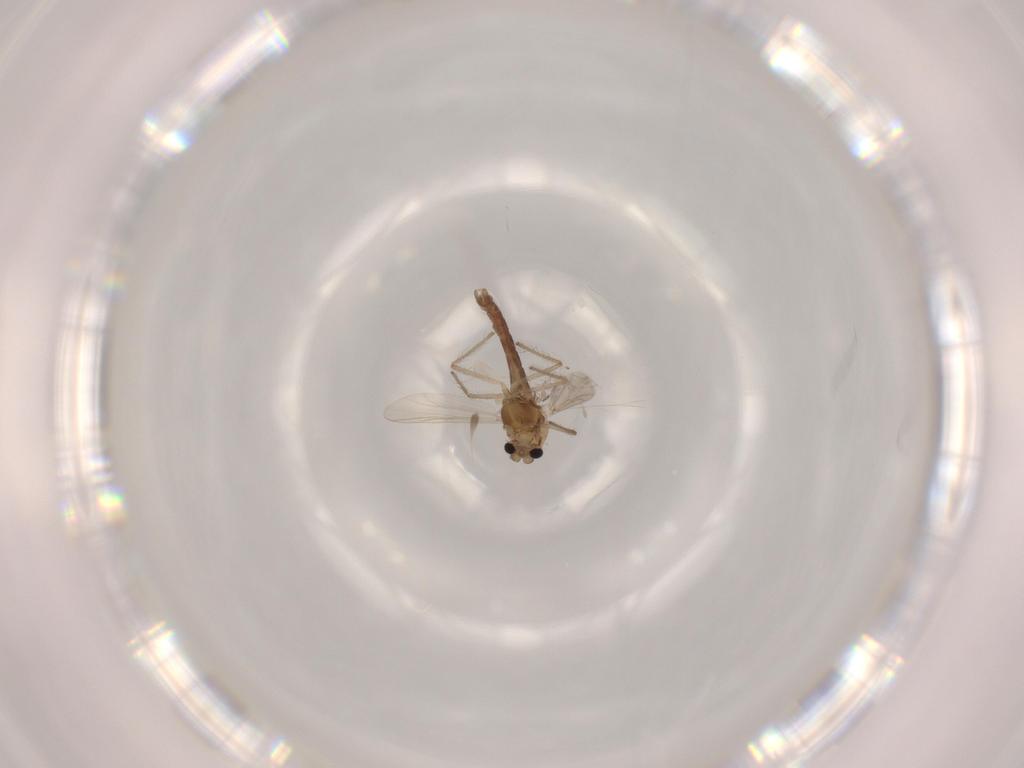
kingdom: Animalia
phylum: Arthropoda
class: Insecta
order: Diptera
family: Chironomidae
